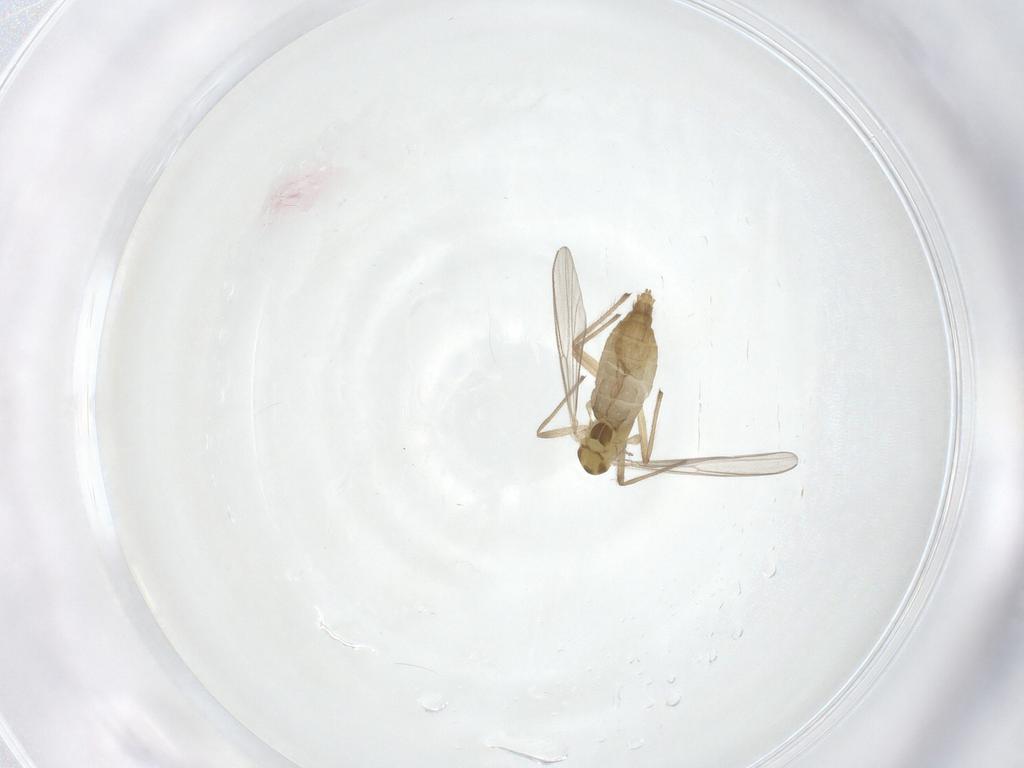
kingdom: Animalia
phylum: Arthropoda
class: Insecta
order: Diptera
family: Chironomidae
